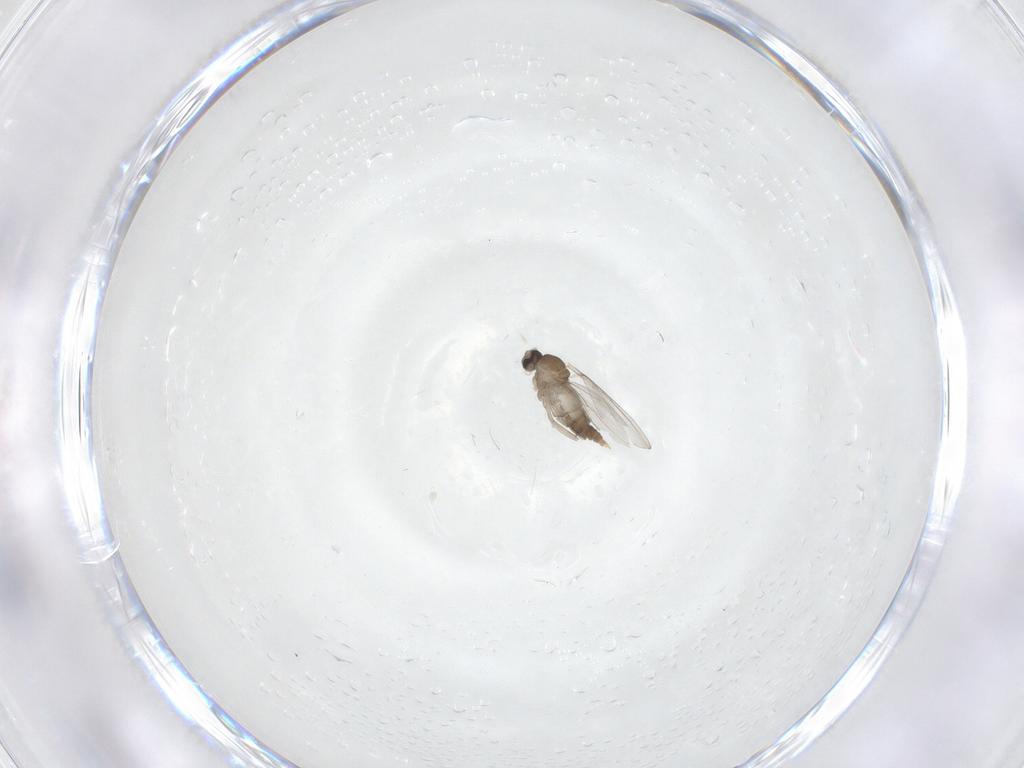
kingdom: Animalia
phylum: Arthropoda
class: Insecta
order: Diptera
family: Cecidomyiidae
